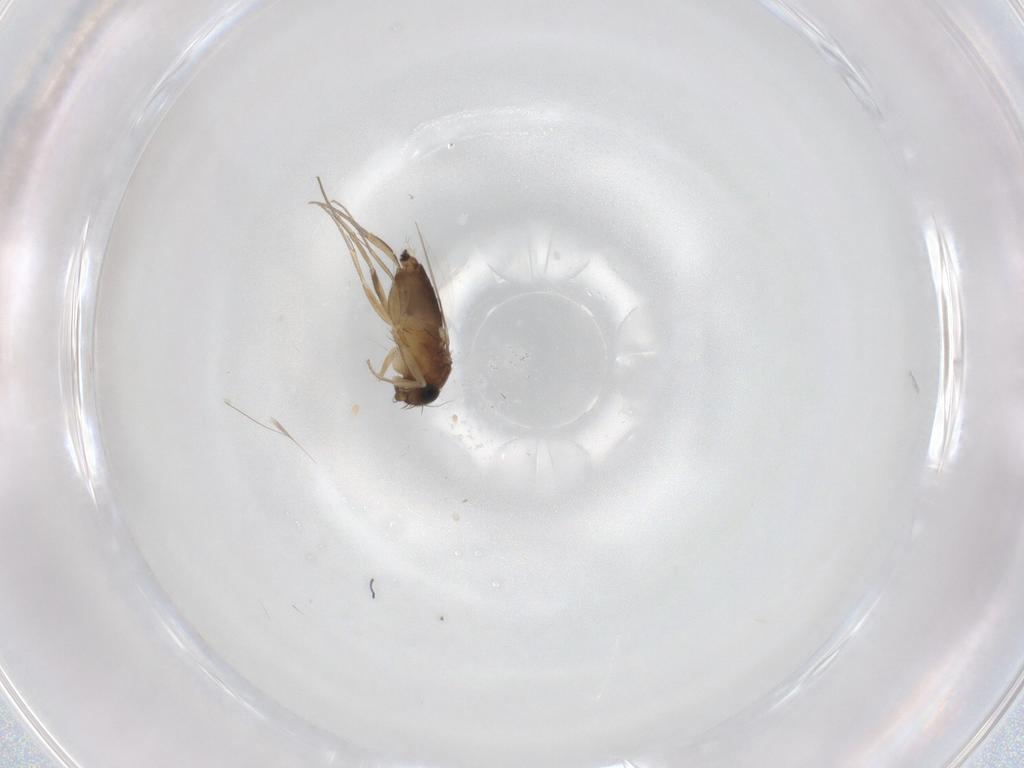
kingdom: Animalia
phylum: Arthropoda
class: Insecta
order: Diptera
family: Phoridae
